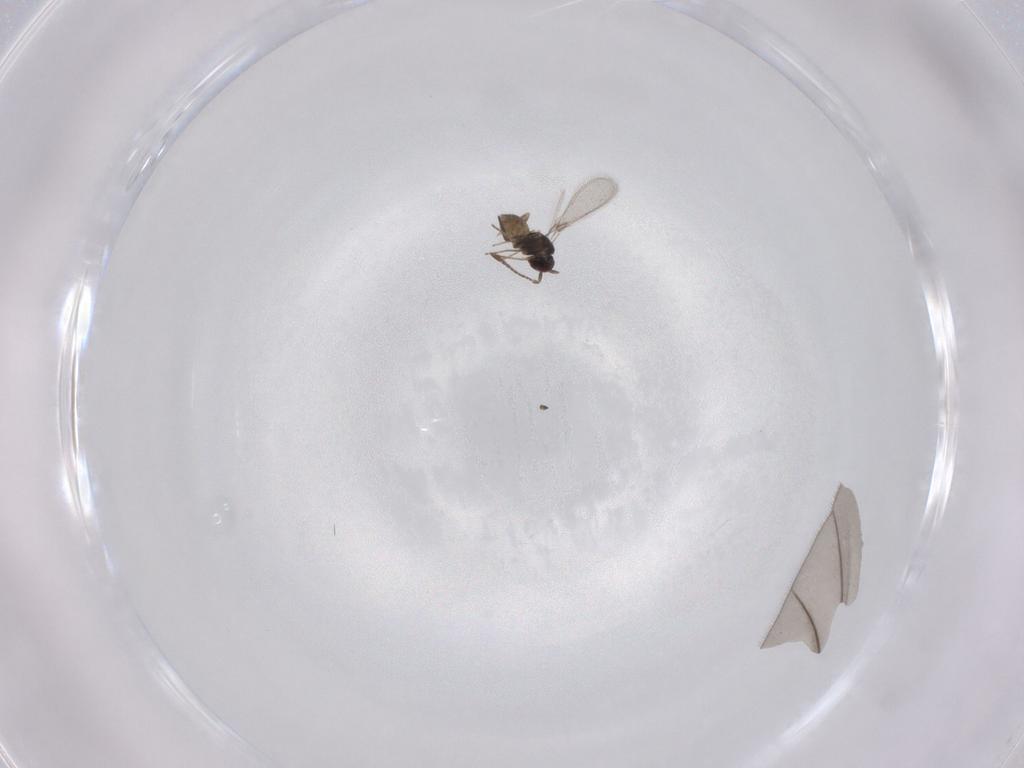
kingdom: Animalia
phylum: Arthropoda
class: Insecta
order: Hymenoptera
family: Mymaridae
